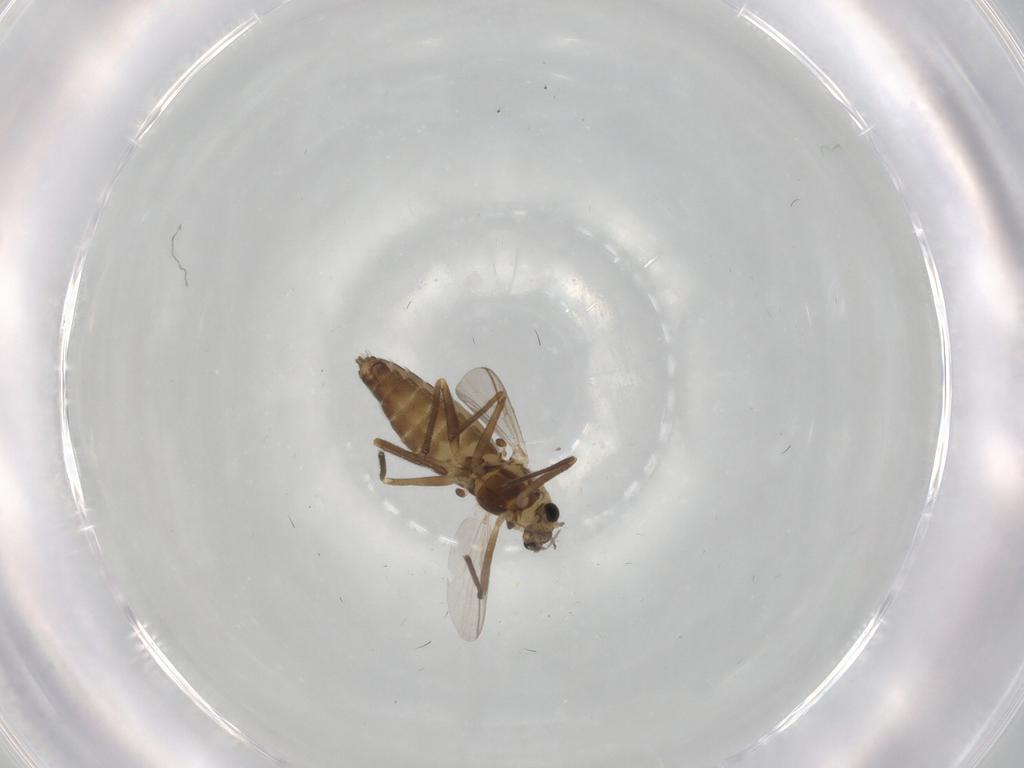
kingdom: Animalia
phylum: Arthropoda
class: Insecta
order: Diptera
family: Chironomidae
